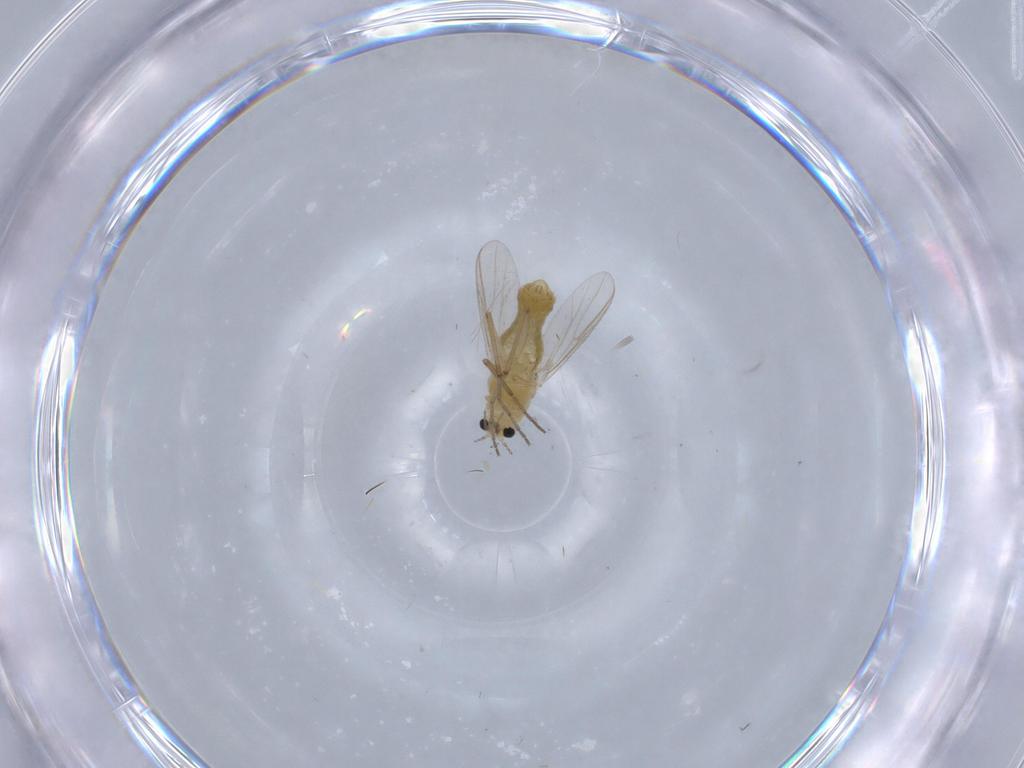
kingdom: Animalia
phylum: Arthropoda
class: Insecta
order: Diptera
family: Chironomidae
